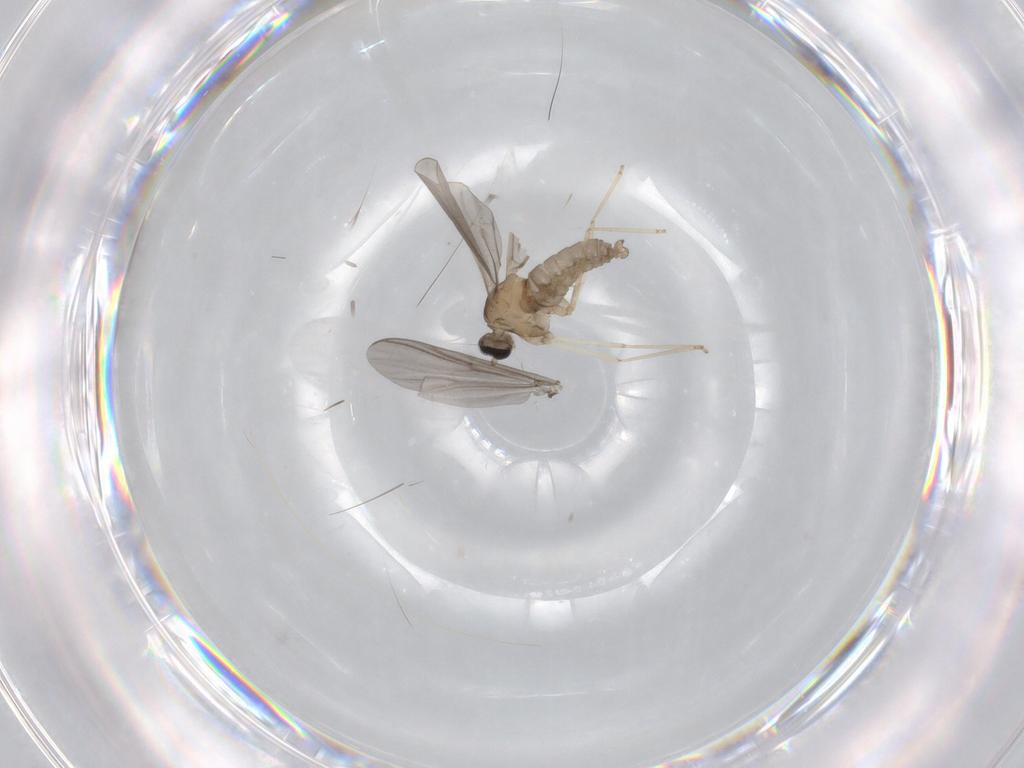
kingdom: Animalia
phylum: Arthropoda
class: Insecta
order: Diptera
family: Cecidomyiidae
